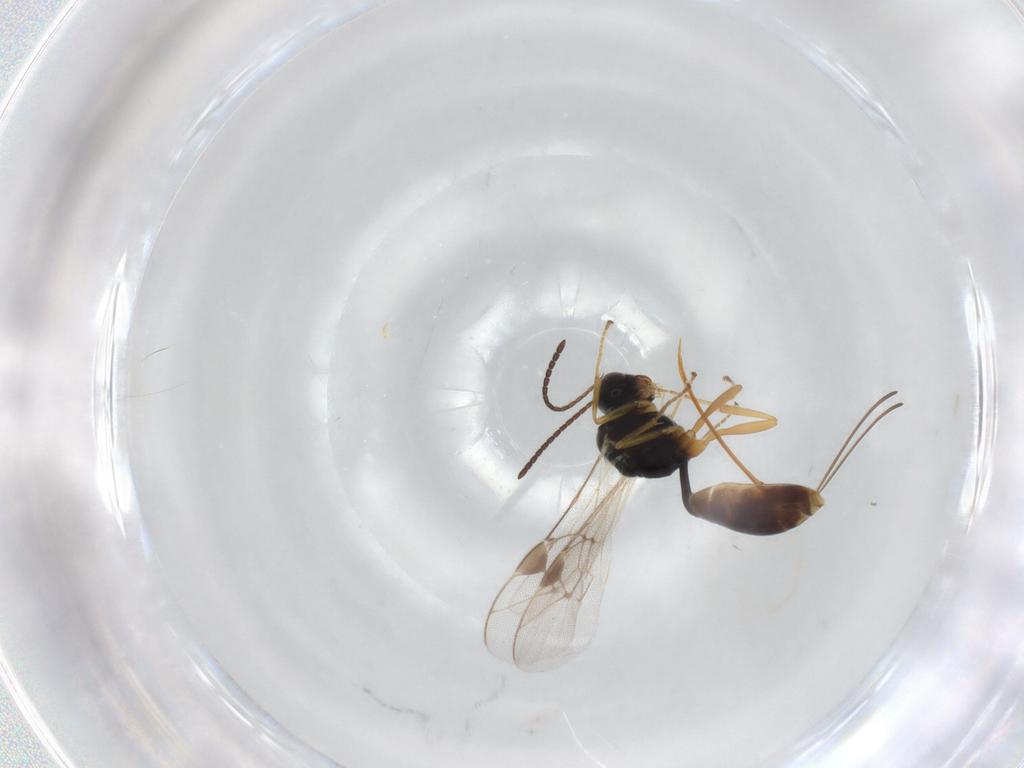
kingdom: Animalia
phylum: Arthropoda
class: Insecta
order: Hymenoptera
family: Ichneumonidae
